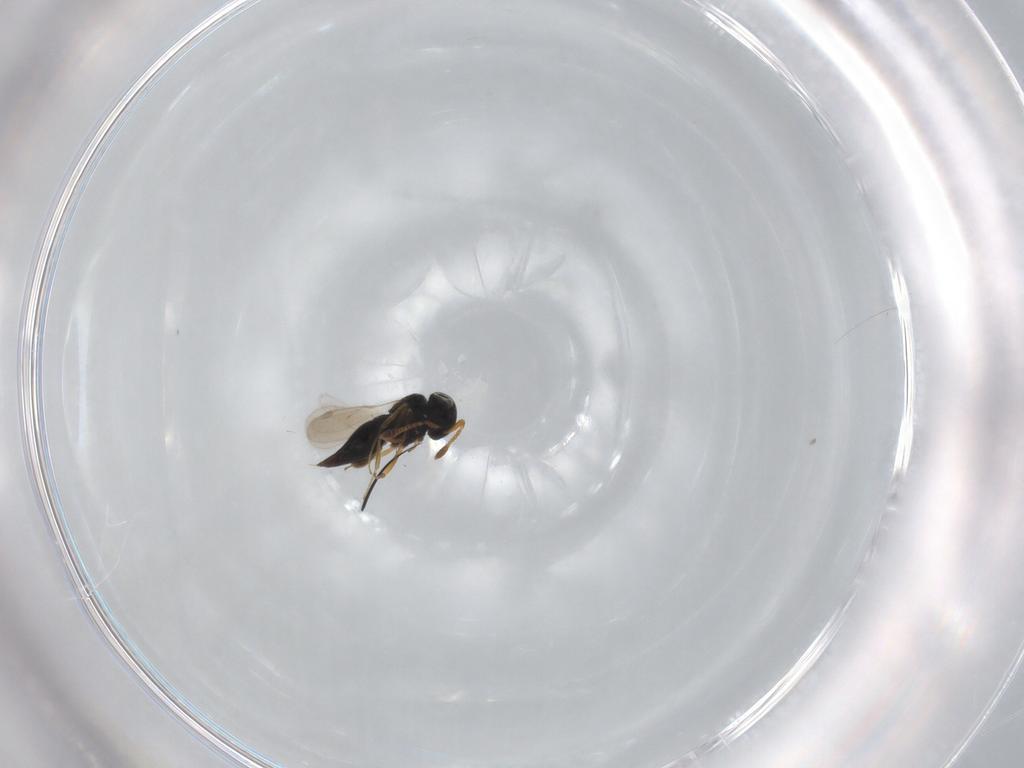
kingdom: Animalia
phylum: Arthropoda
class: Insecta
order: Hymenoptera
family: Scelionidae
